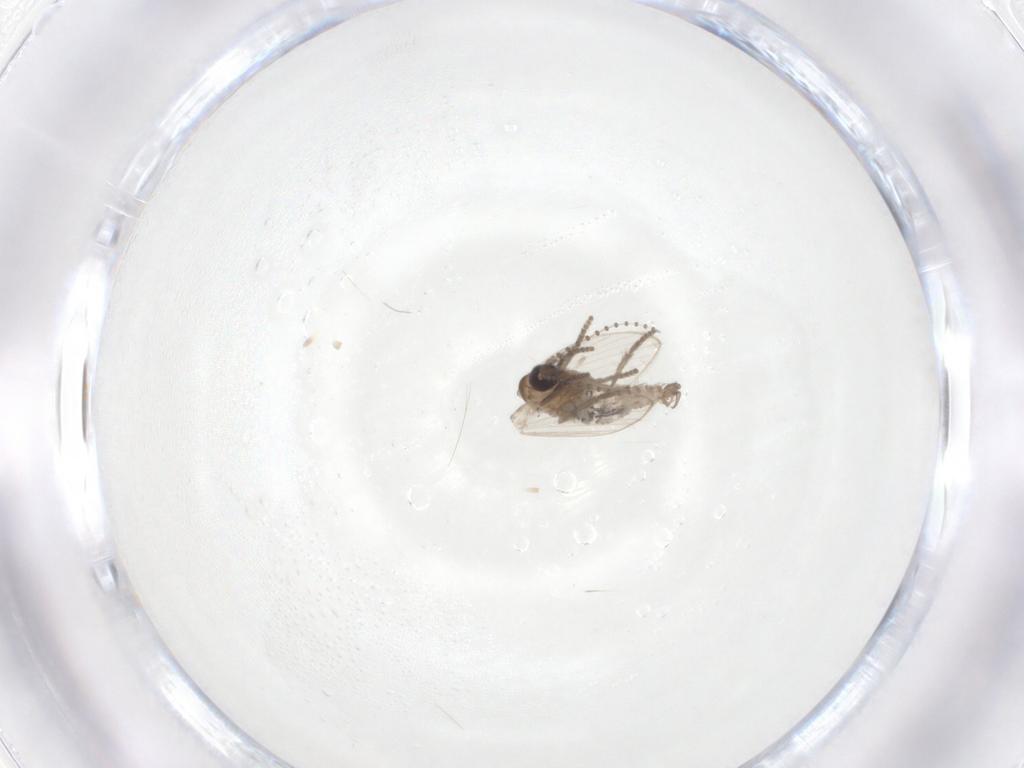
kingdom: Animalia
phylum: Arthropoda
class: Insecta
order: Diptera
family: Psychodidae
